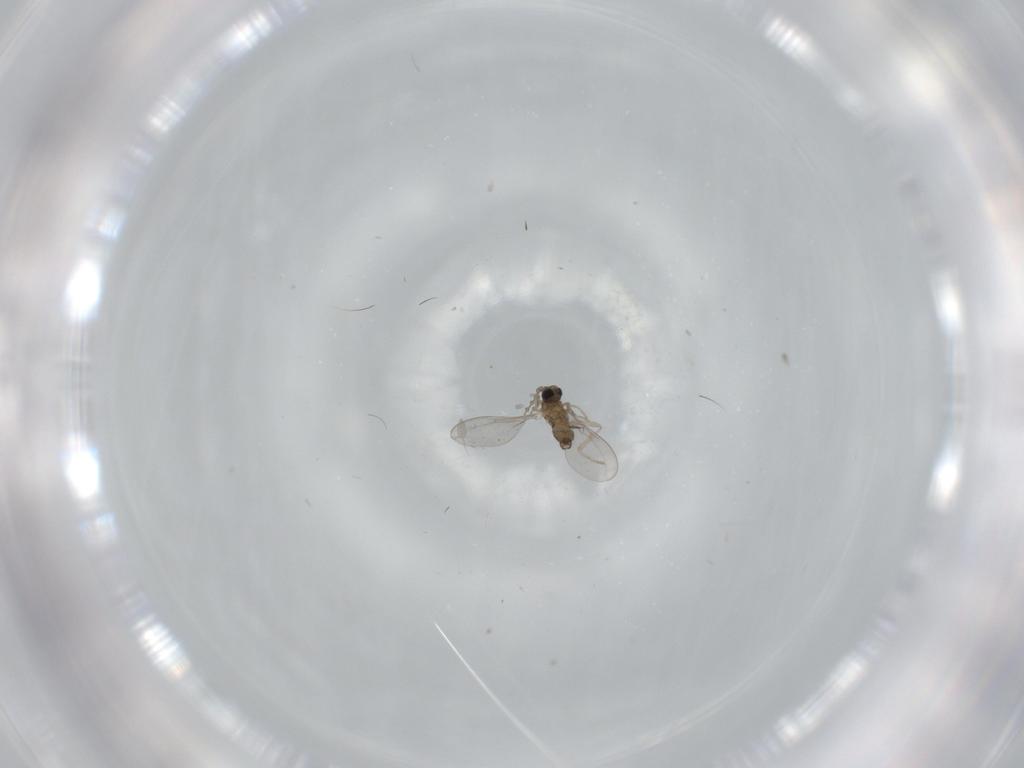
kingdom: Animalia
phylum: Arthropoda
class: Insecta
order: Diptera
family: Cecidomyiidae
